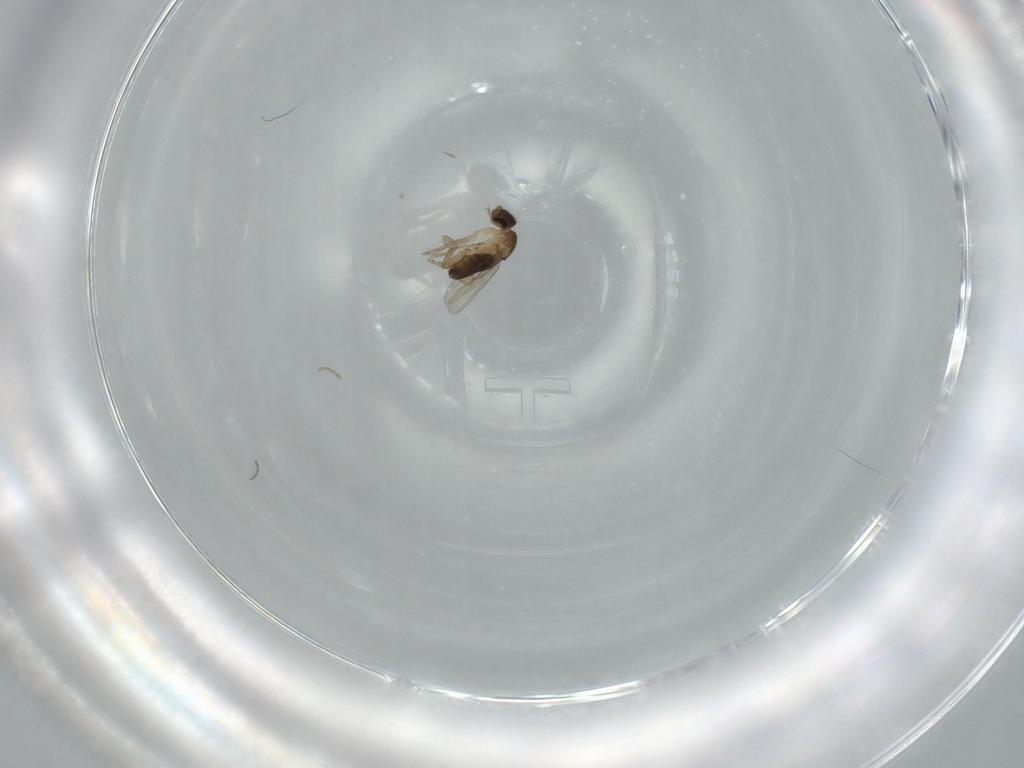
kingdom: Animalia
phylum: Arthropoda
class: Insecta
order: Diptera
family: Phoridae
